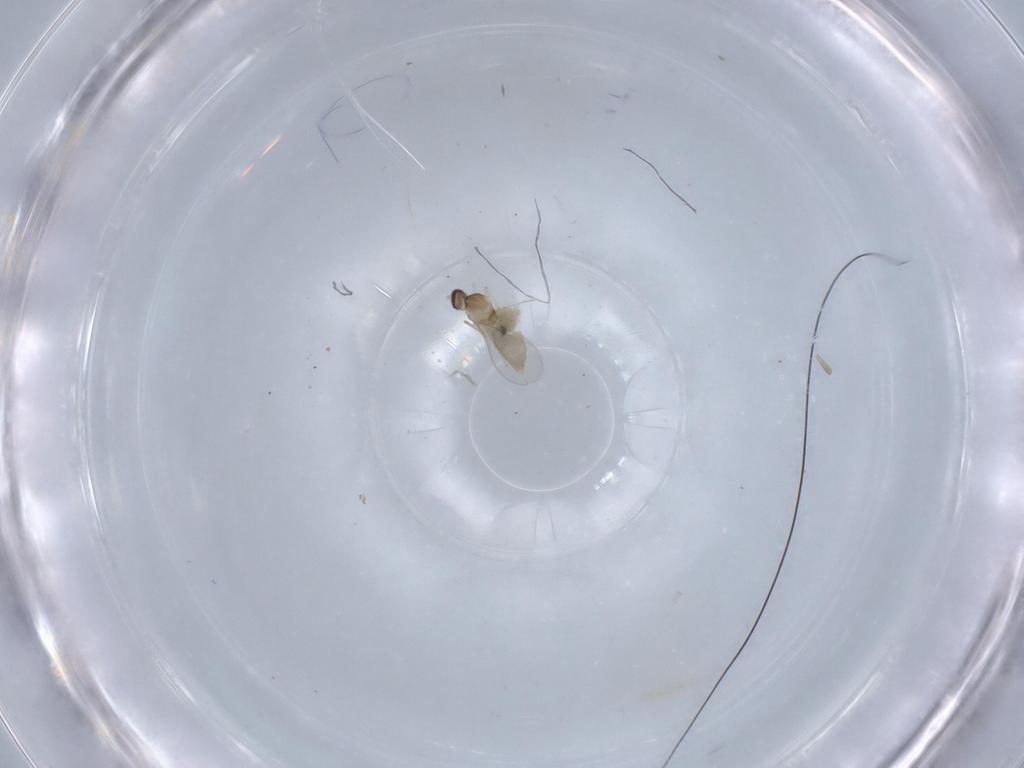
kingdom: Animalia
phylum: Arthropoda
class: Insecta
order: Diptera
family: Cecidomyiidae
